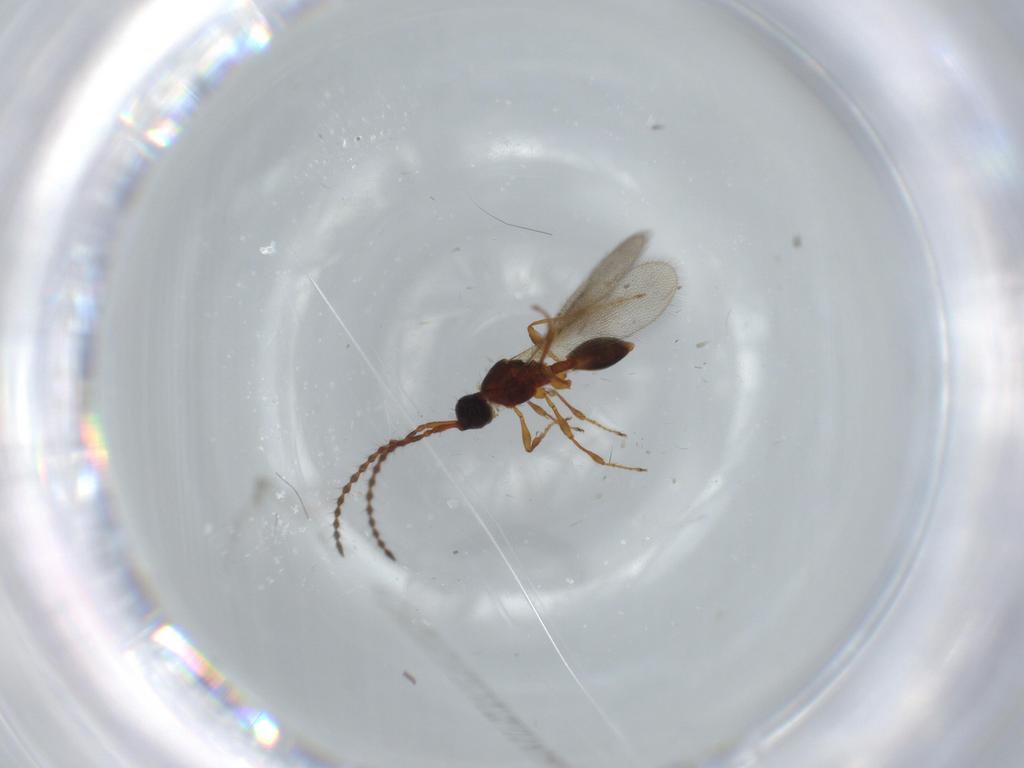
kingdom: Animalia
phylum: Arthropoda
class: Insecta
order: Hymenoptera
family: Diapriidae
